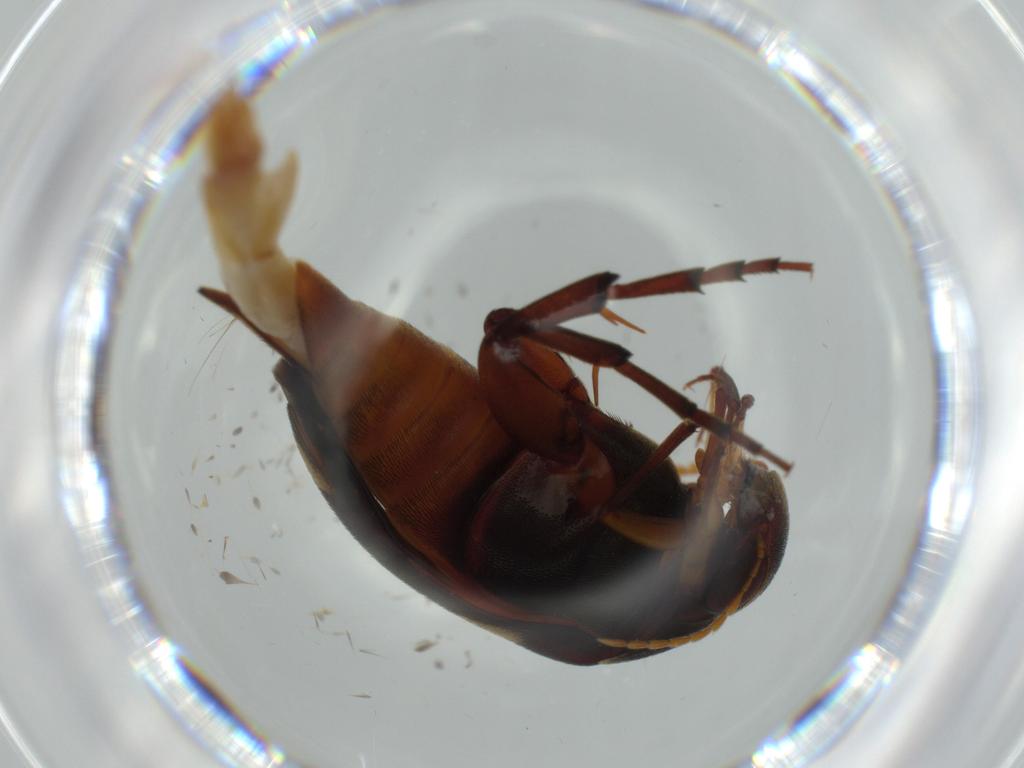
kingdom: Animalia
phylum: Arthropoda
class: Insecta
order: Coleoptera
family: Mordellidae
